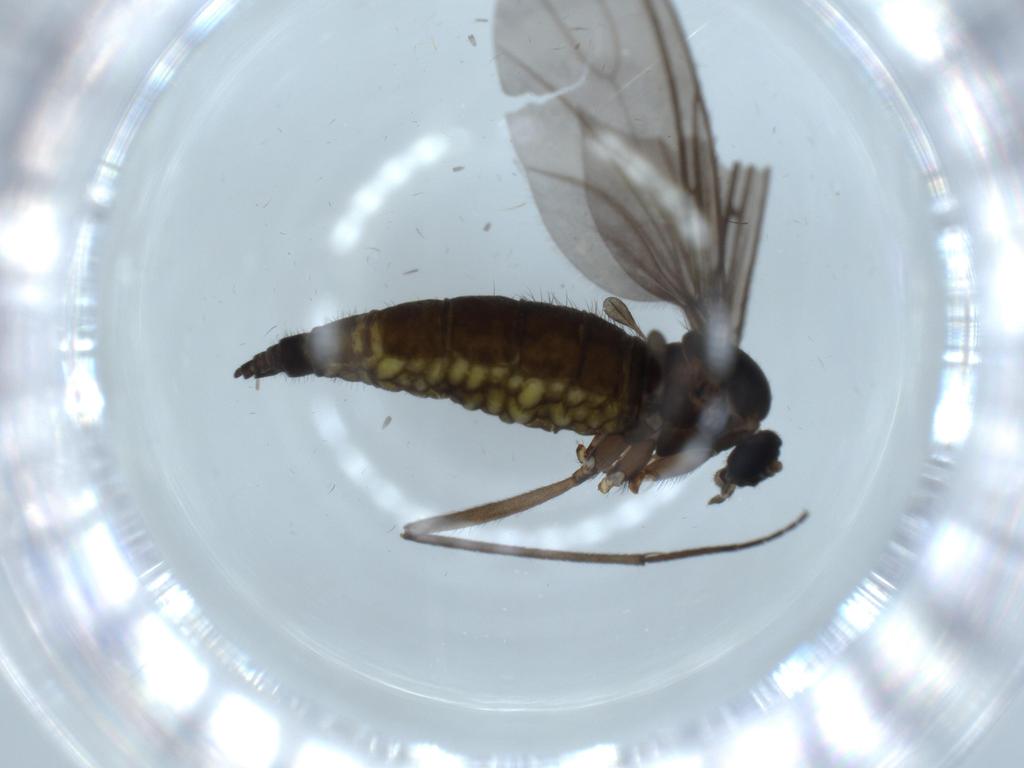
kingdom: Animalia
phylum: Arthropoda
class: Insecta
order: Diptera
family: Sciaridae
